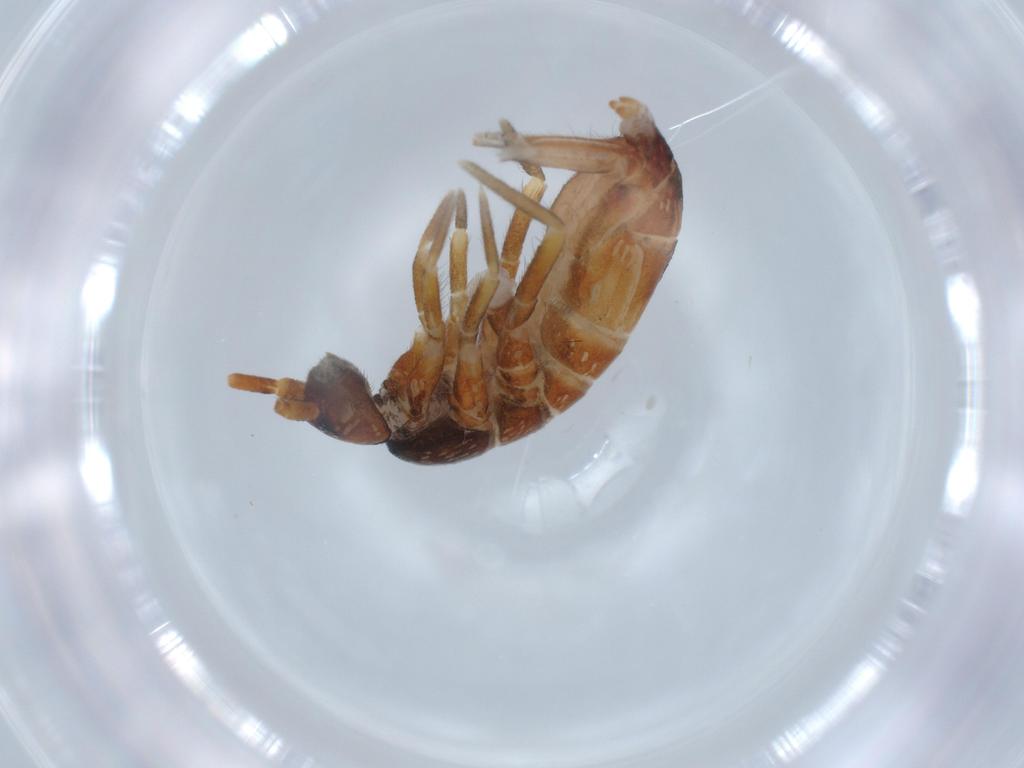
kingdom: Animalia
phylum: Arthropoda
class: Collembola
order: Entomobryomorpha
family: Tomoceridae
